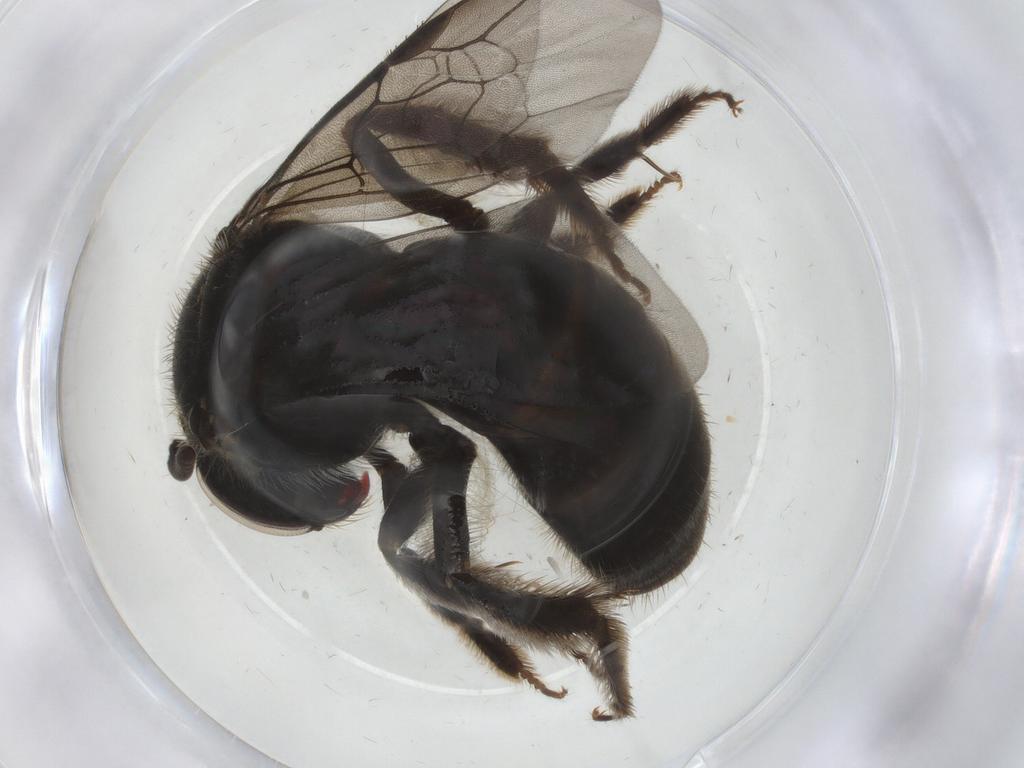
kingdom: Animalia
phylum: Arthropoda
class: Insecta
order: Hymenoptera
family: Halictidae
